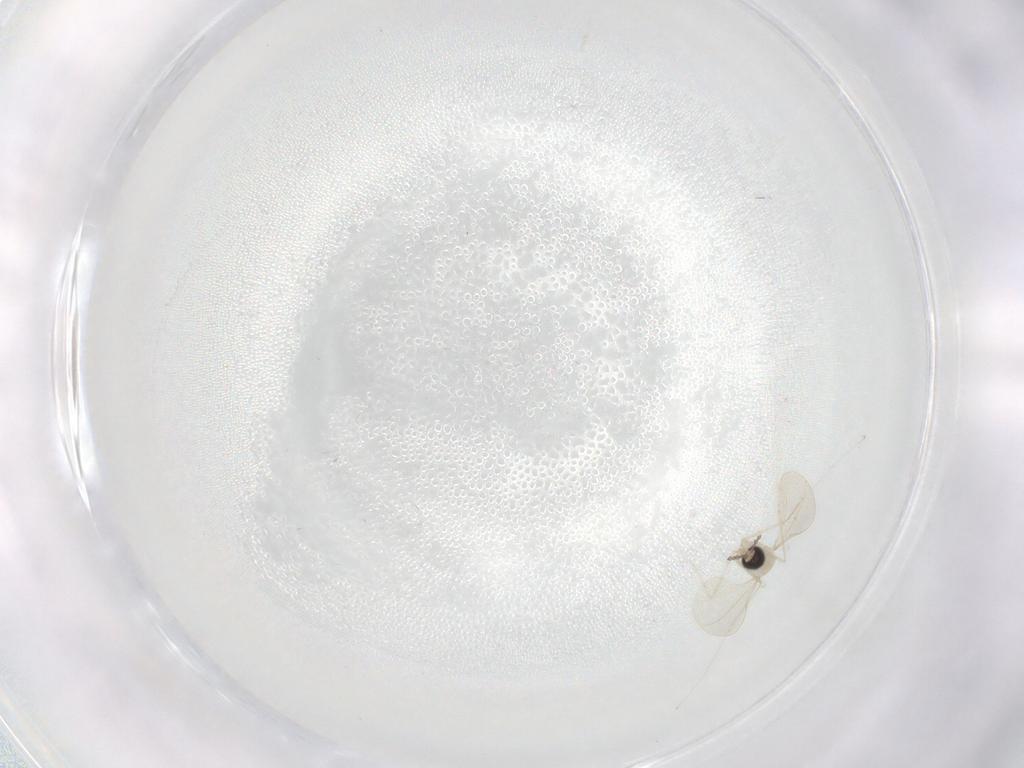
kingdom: Animalia
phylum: Arthropoda
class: Insecta
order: Diptera
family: Cecidomyiidae
